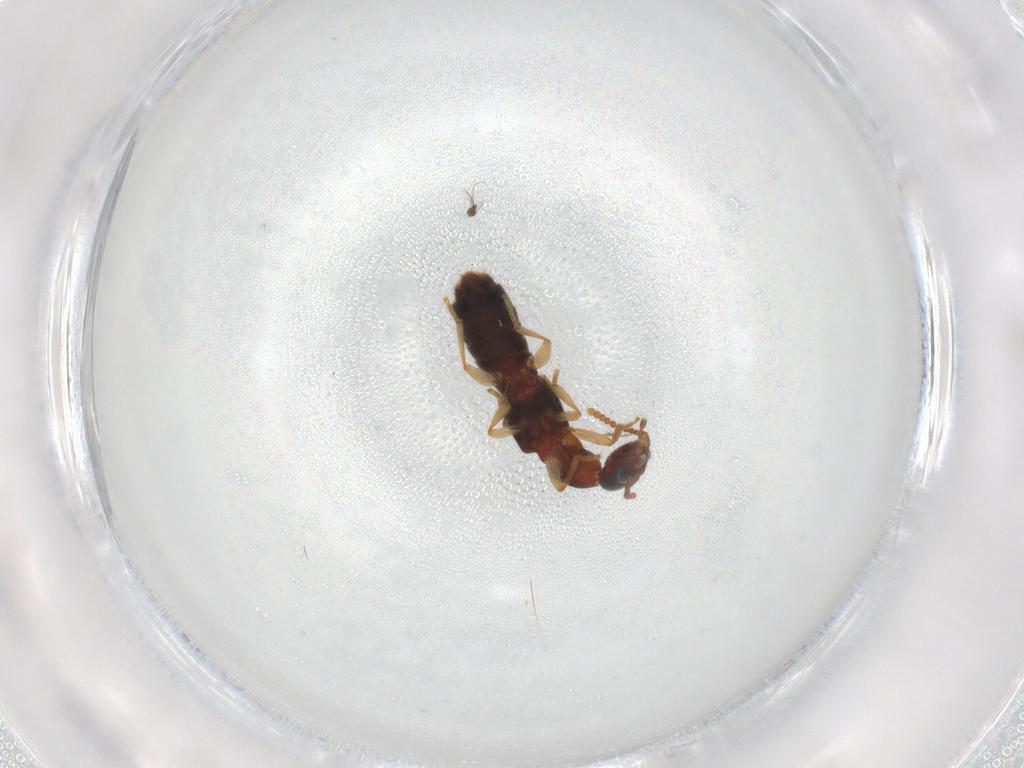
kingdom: Animalia
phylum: Arthropoda
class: Insecta
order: Coleoptera
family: Staphylinidae
